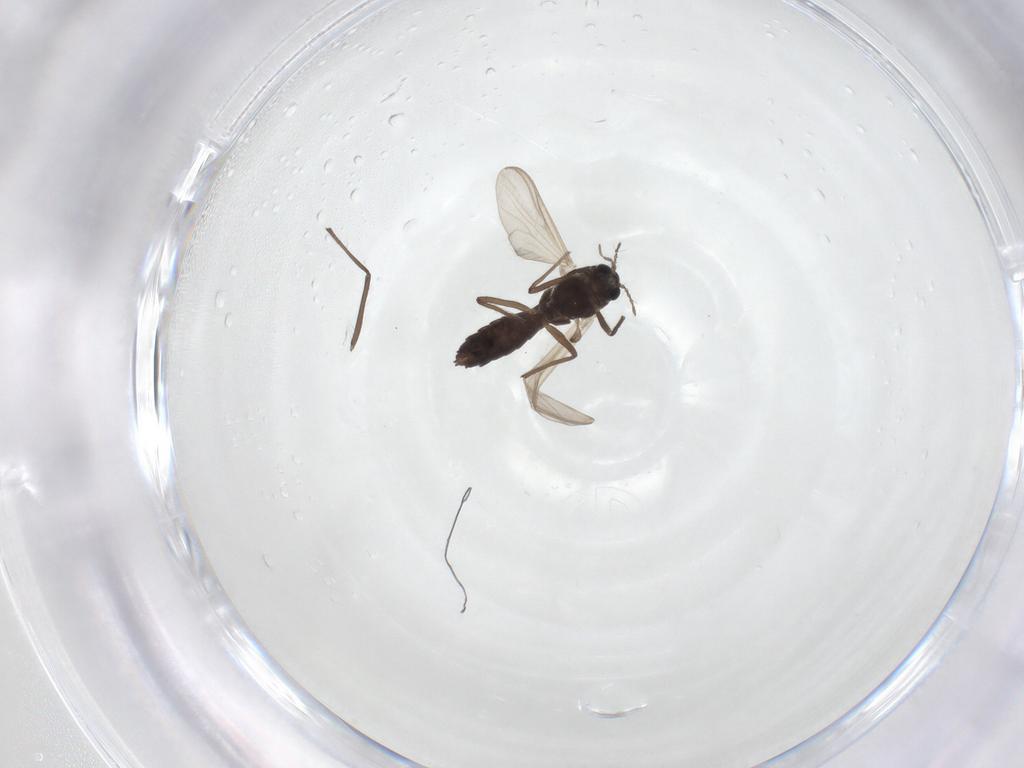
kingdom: Animalia
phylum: Arthropoda
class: Insecta
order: Diptera
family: Chironomidae
